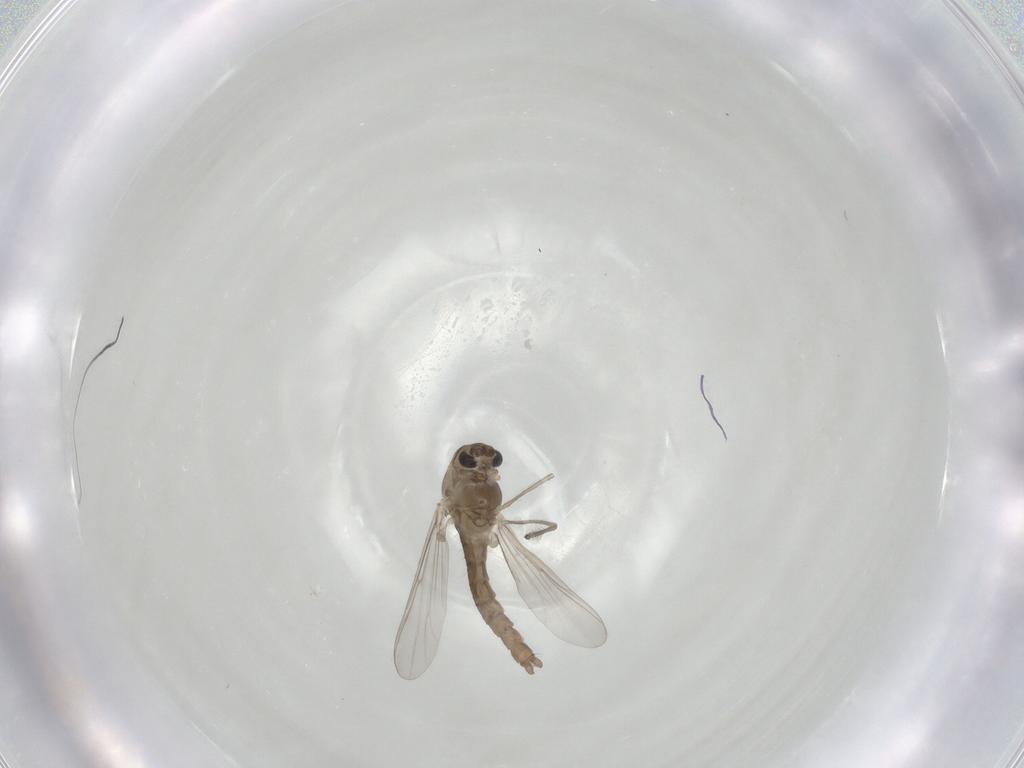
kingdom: Animalia
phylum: Arthropoda
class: Insecta
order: Diptera
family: Chironomidae
